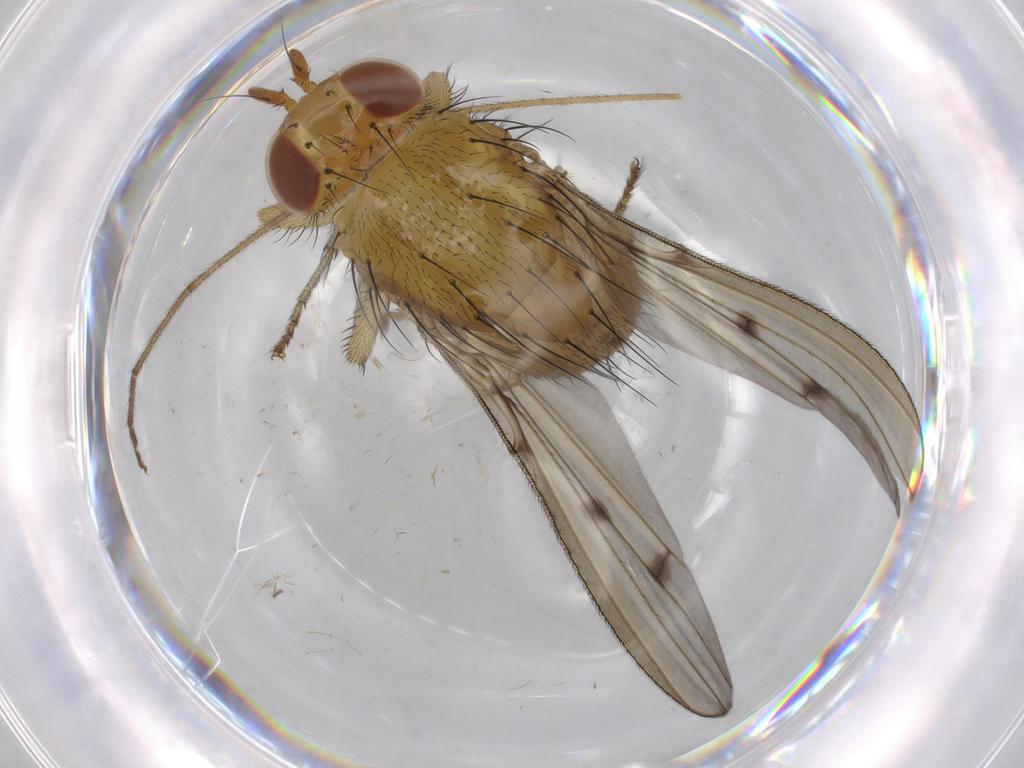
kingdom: Animalia
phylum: Arthropoda
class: Insecta
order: Diptera
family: Limoniidae
